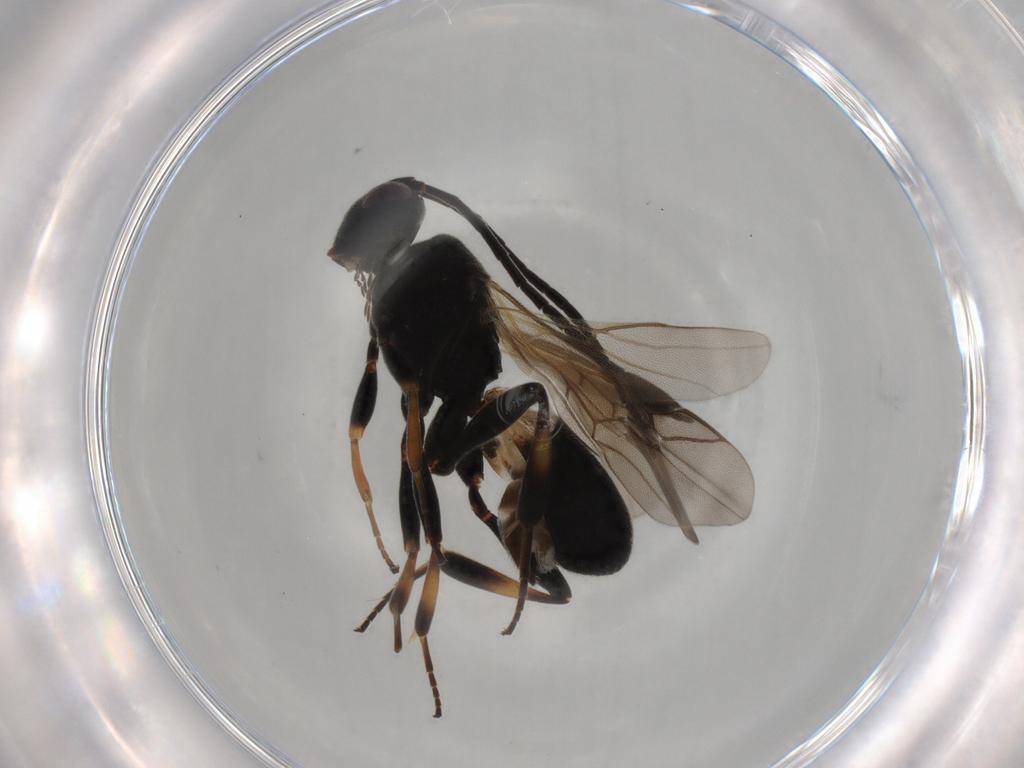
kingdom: Animalia
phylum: Arthropoda
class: Insecta
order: Hymenoptera
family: Braconidae
